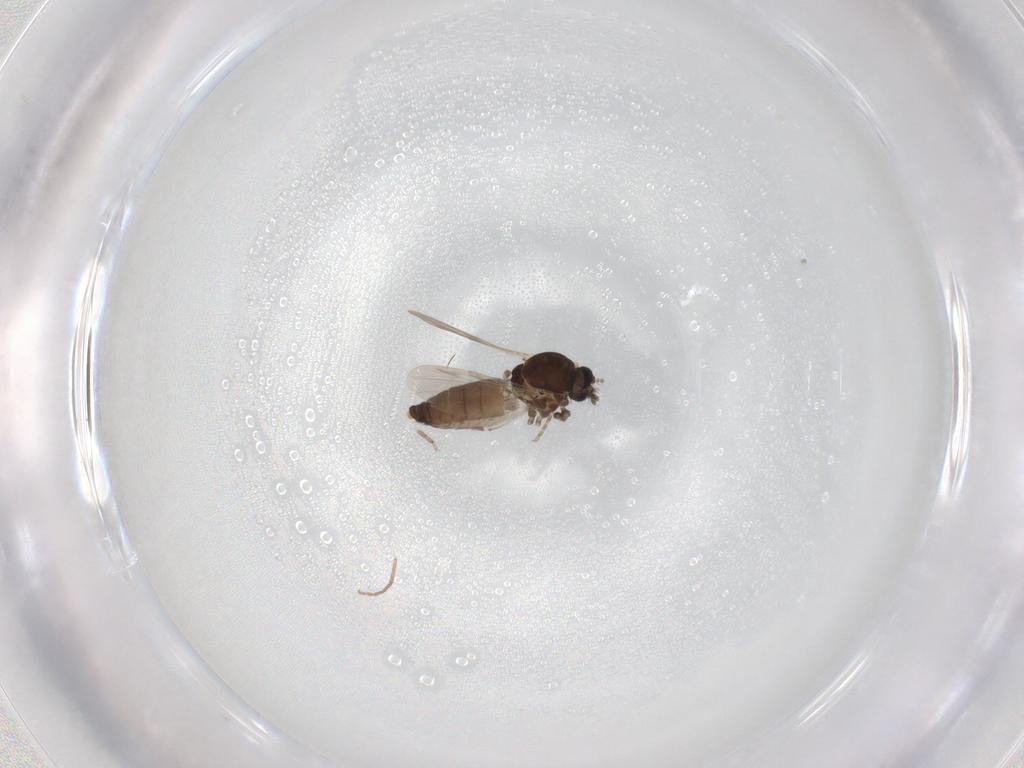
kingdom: Animalia
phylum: Arthropoda
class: Insecta
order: Diptera
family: Ceratopogonidae
